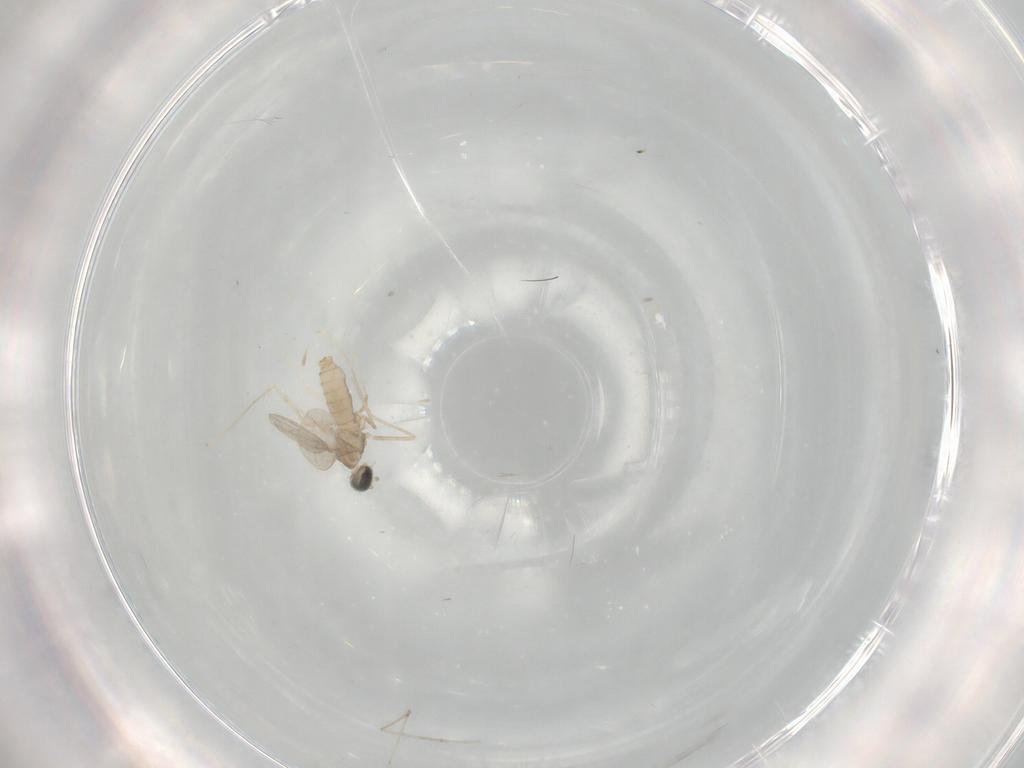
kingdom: Animalia
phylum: Arthropoda
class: Insecta
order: Diptera
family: Cecidomyiidae
